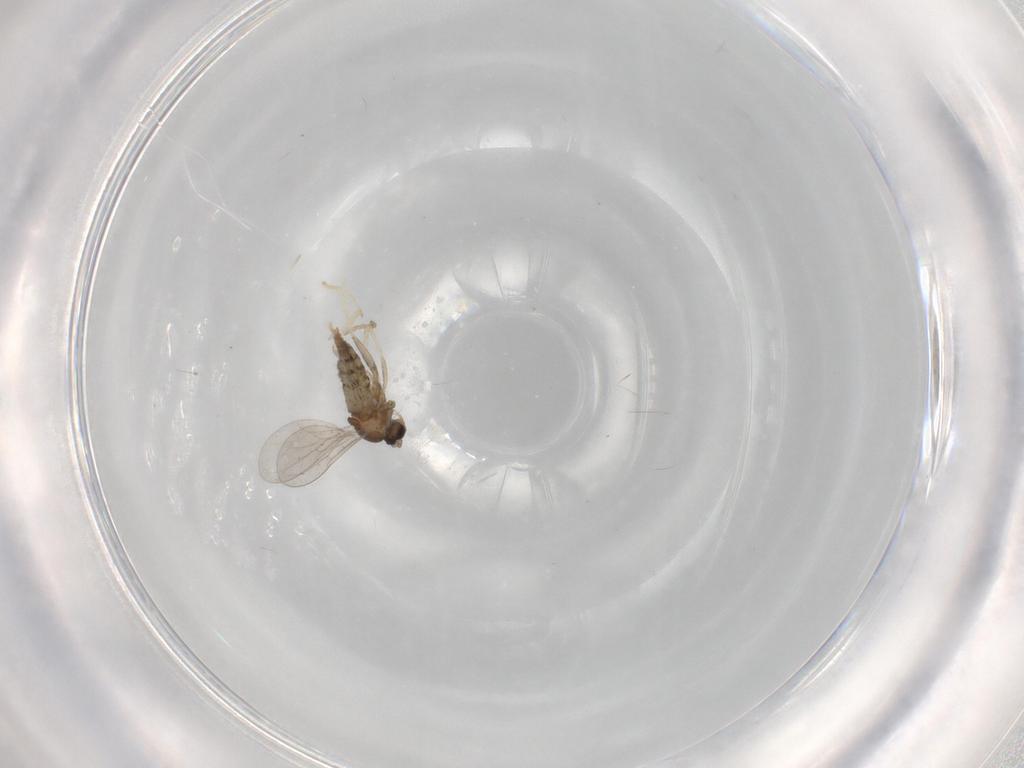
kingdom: Animalia
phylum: Arthropoda
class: Insecta
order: Diptera
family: Cecidomyiidae
